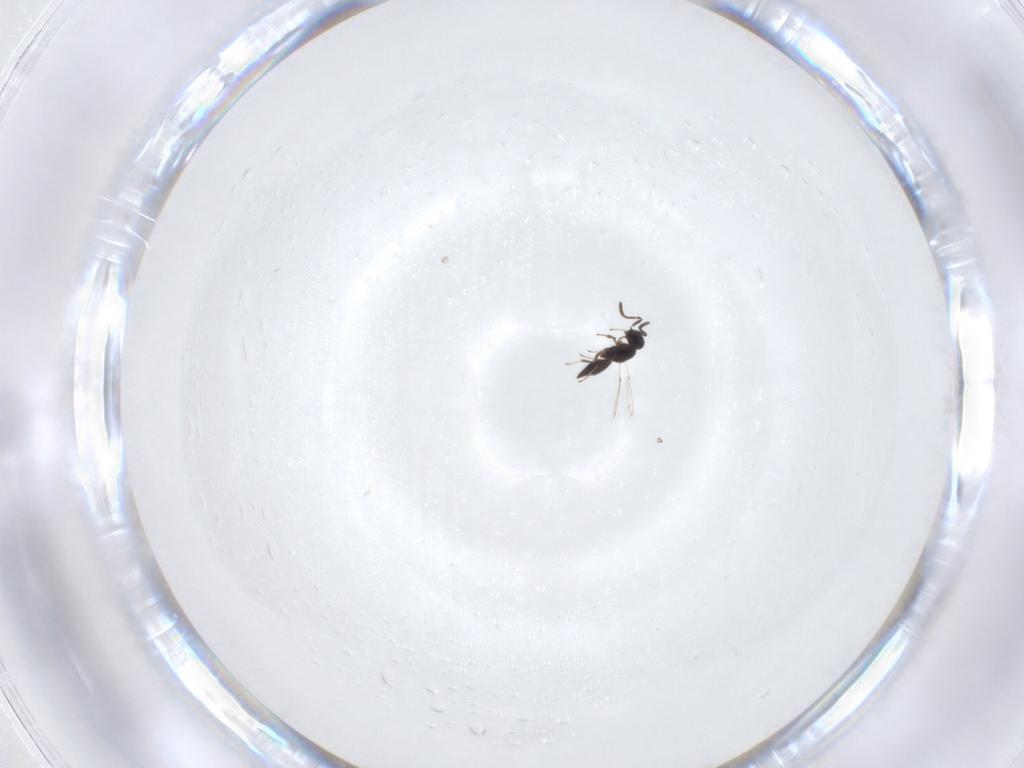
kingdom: Animalia
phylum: Arthropoda
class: Insecta
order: Hymenoptera
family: Scelionidae
